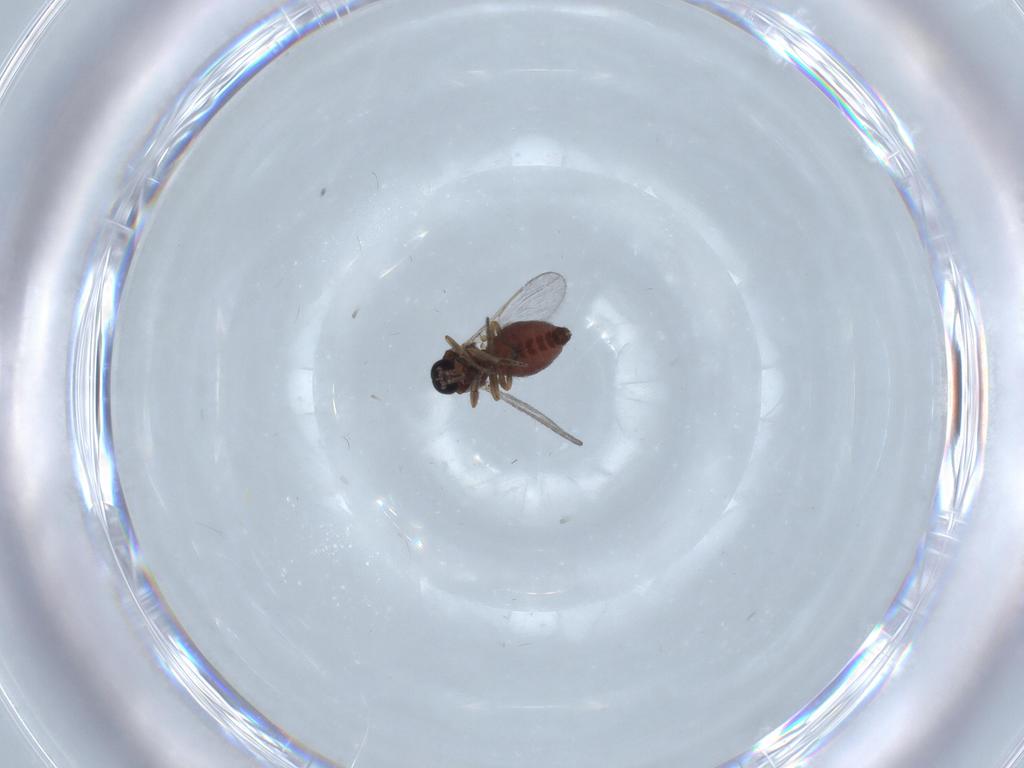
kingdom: Animalia
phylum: Arthropoda
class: Insecta
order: Diptera
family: Ceratopogonidae
